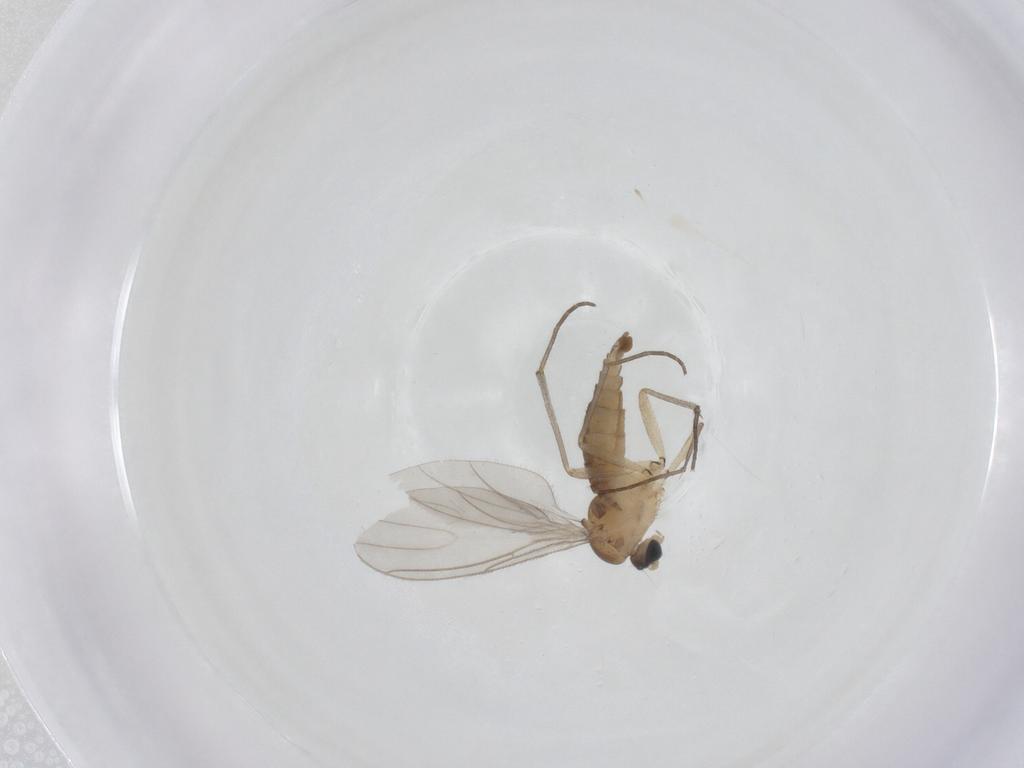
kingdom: Animalia
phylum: Arthropoda
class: Insecta
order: Diptera
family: Sciaridae
